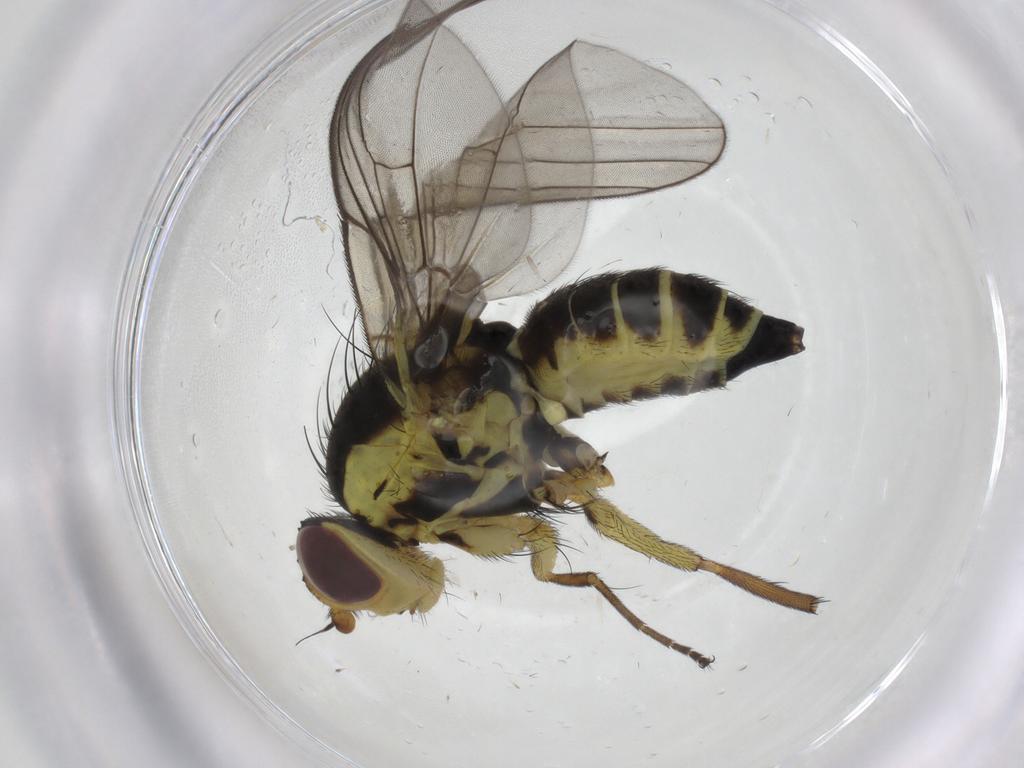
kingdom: Animalia
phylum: Arthropoda
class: Insecta
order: Diptera
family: Agromyzidae
